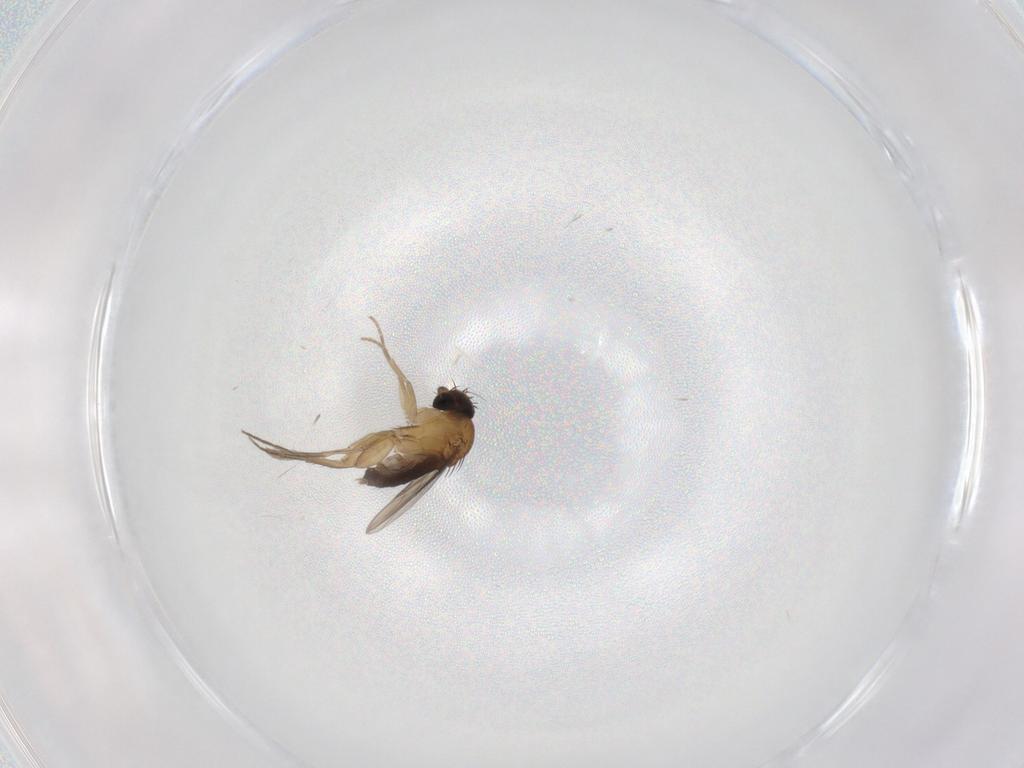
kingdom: Animalia
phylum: Arthropoda
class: Insecta
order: Diptera
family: Phoridae
